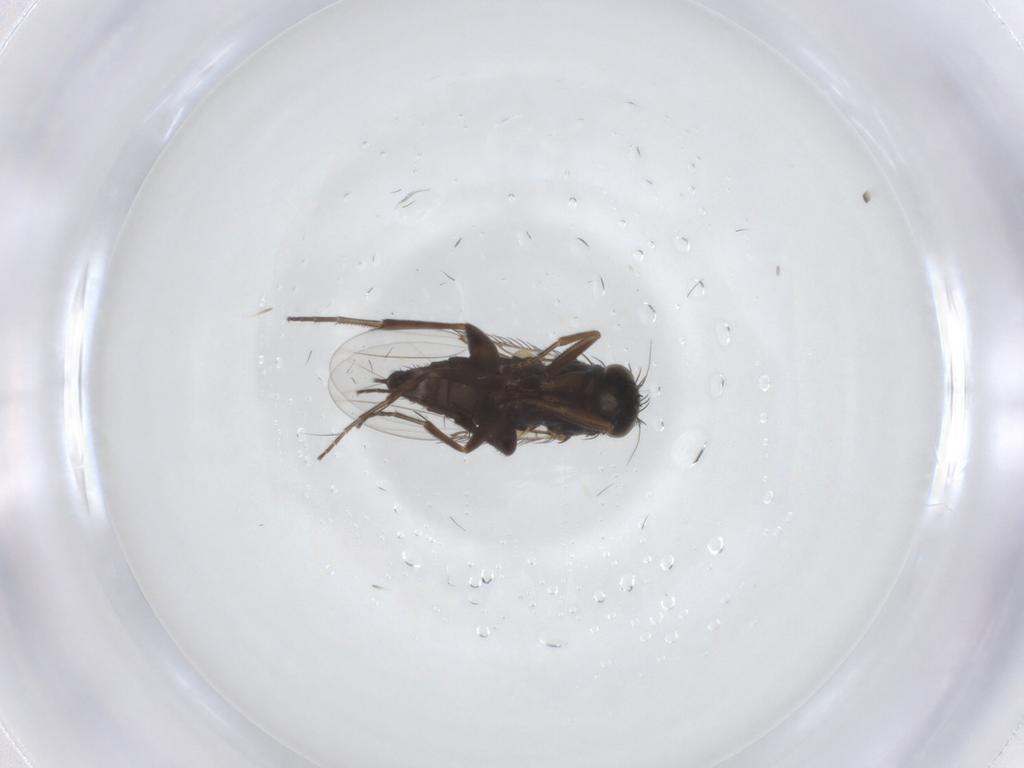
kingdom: Animalia
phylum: Arthropoda
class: Insecta
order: Diptera
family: Phoridae
